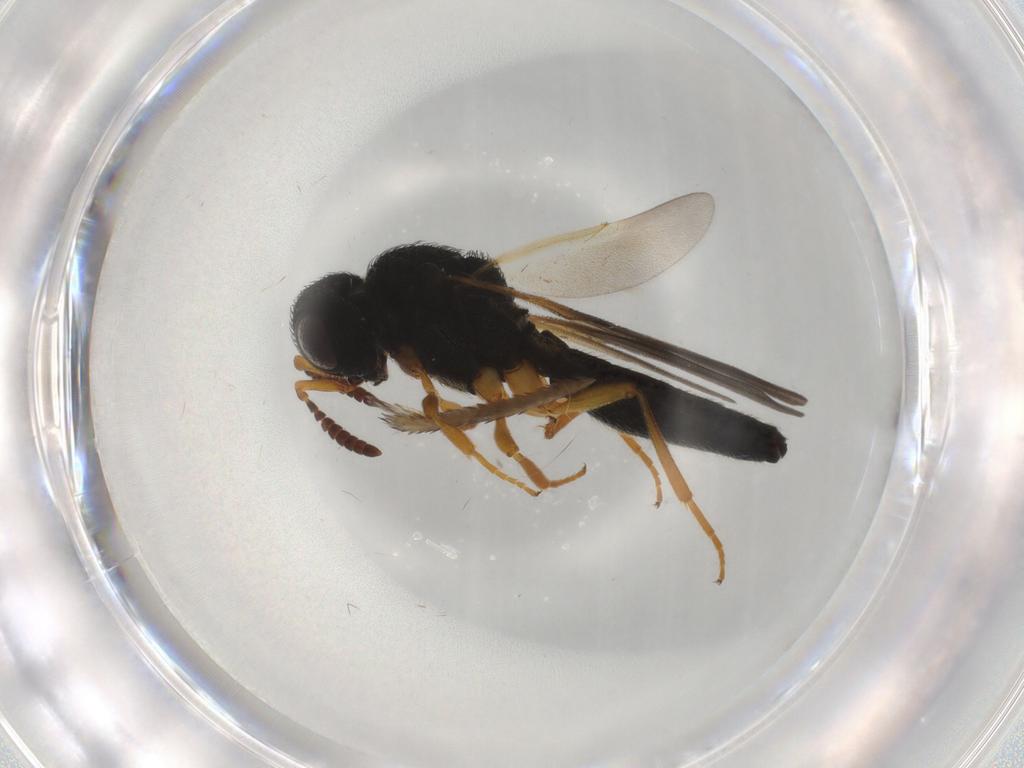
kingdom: Animalia
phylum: Arthropoda
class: Insecta
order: Hymenoptera
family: Scelionidae
